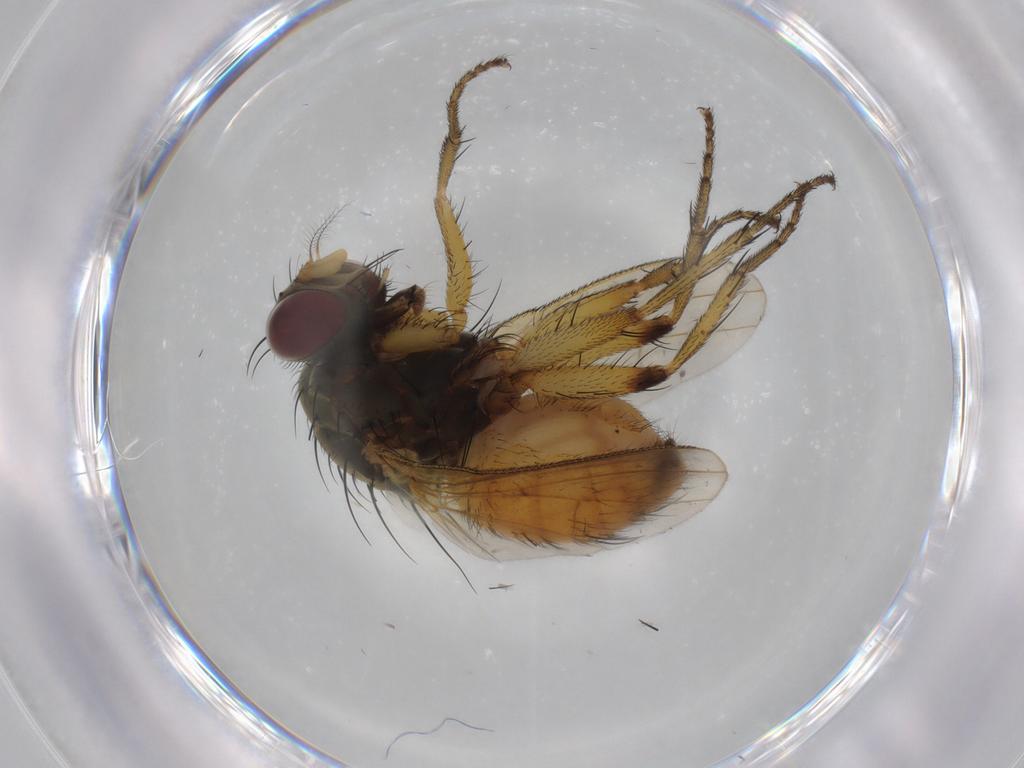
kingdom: Animalia
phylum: Arthropoda
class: Insecta
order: Diptera
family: Muscidae
